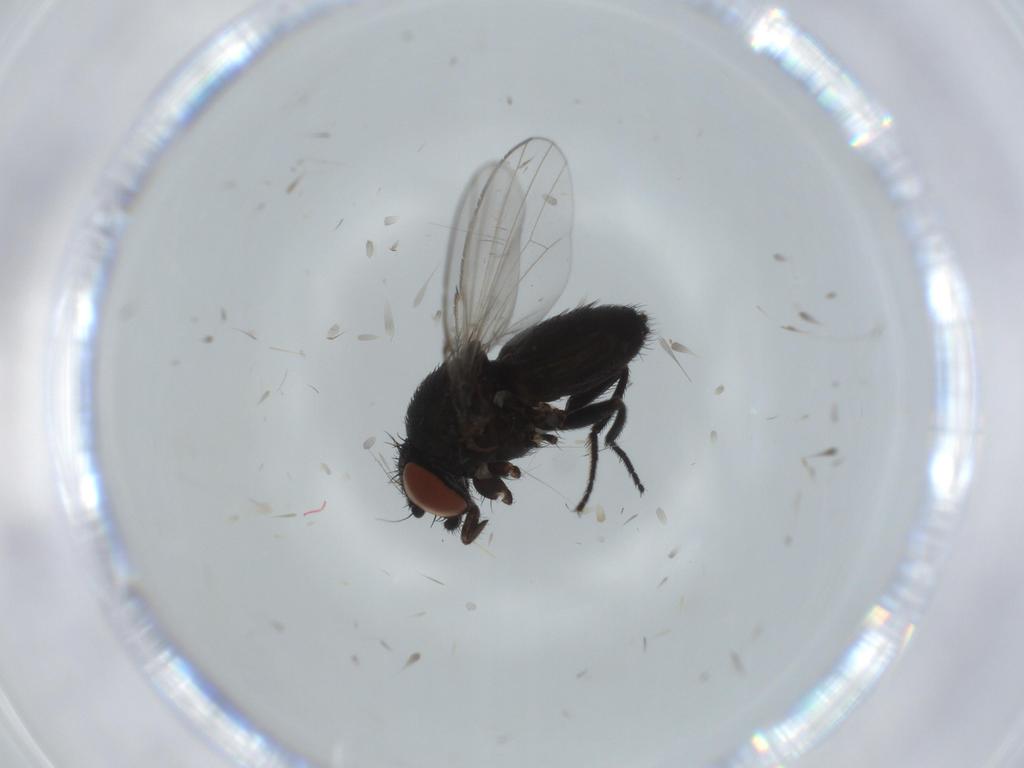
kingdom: Animalia
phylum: Arthropoda
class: Insecta
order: Diptera
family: Milichiidae
